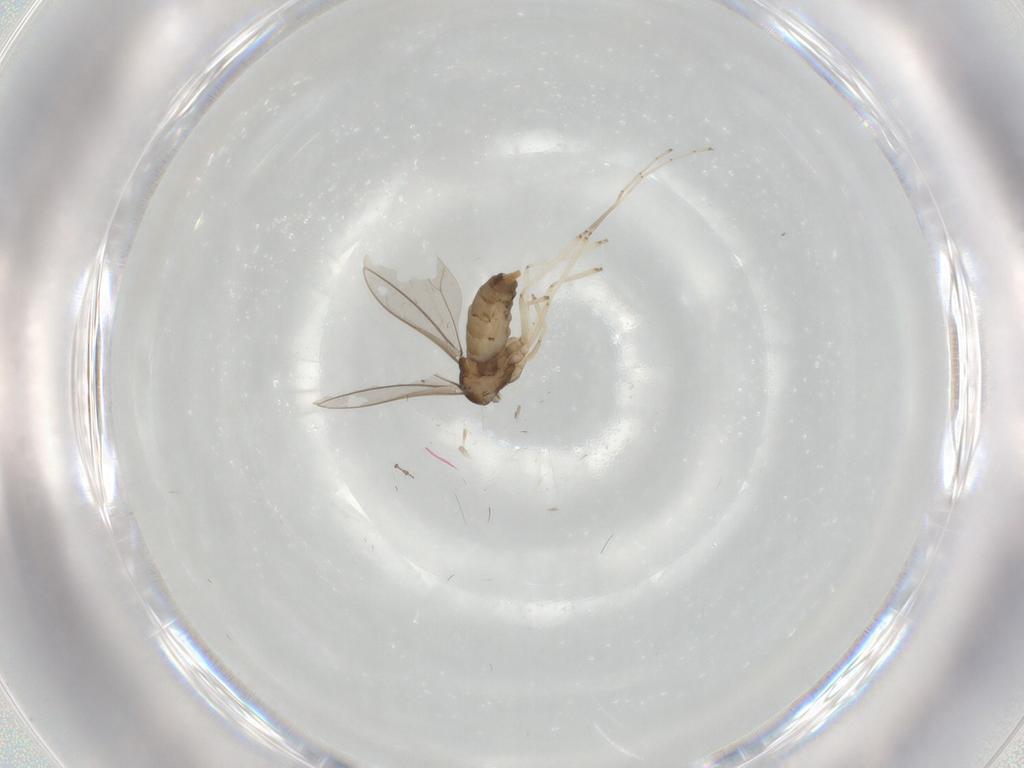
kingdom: Animalia
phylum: Arthropoda
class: Insecta
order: Diptera
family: Cecidomyiidae
